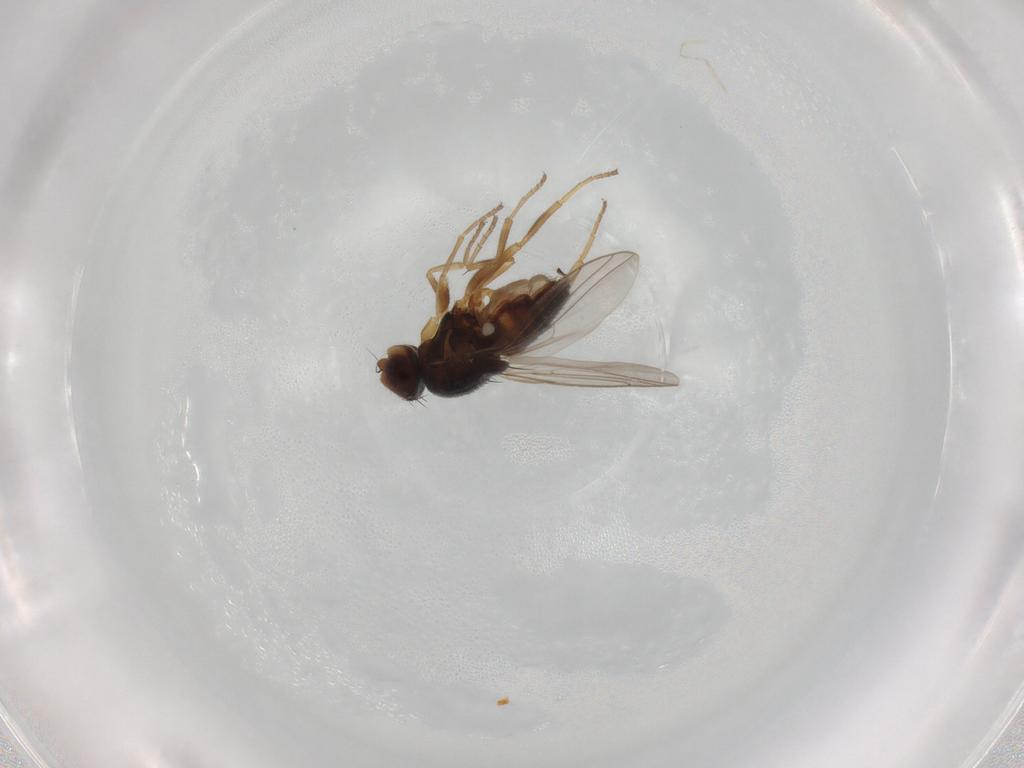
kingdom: Animalia
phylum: Arthropoda
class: Insecta
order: Diptera
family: Chloropidae
